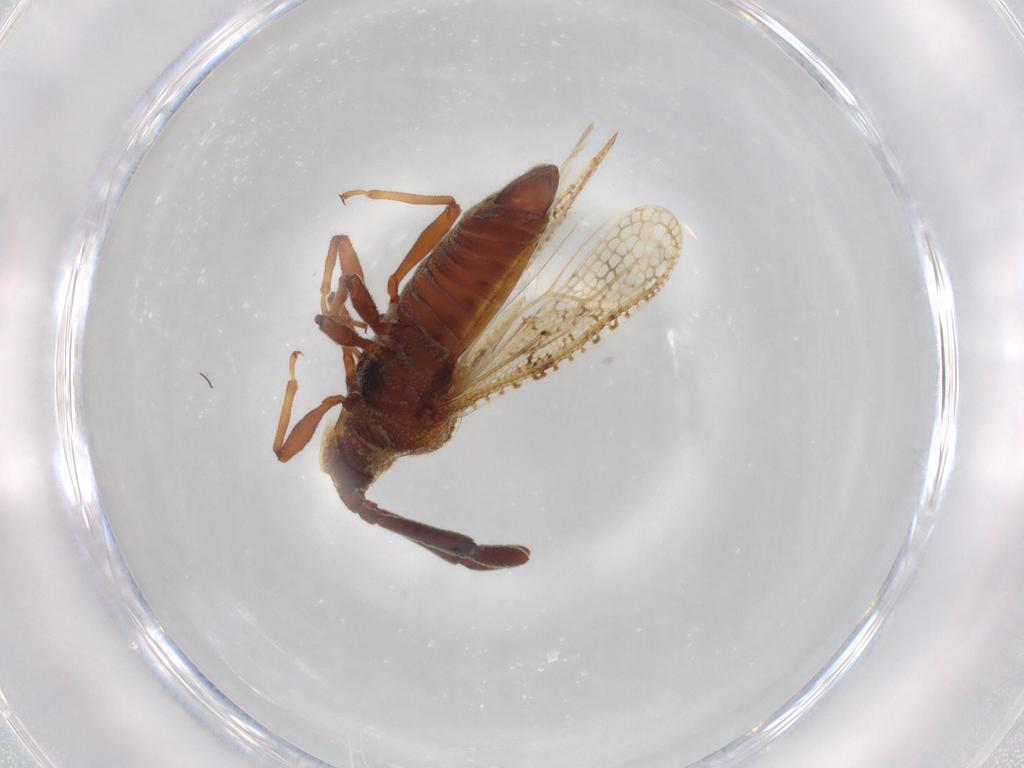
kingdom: Animalia
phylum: Arthropoda
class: Insecta
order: Hemiptera
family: Tingidae
